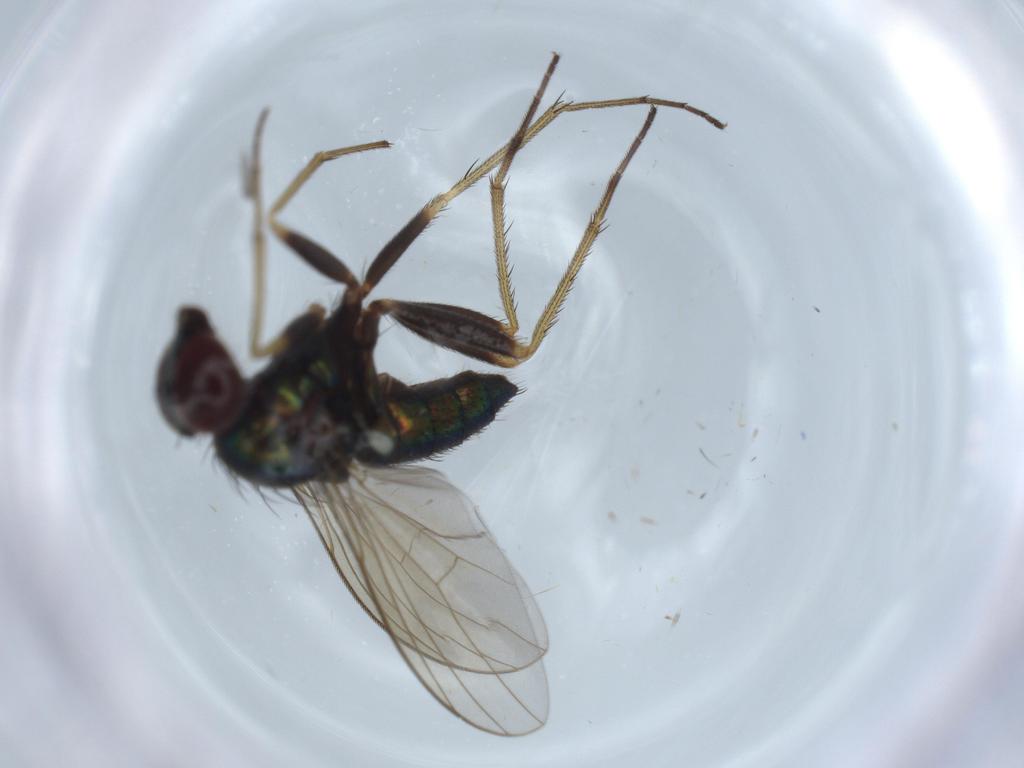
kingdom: Animalia
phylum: Arthropoda
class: Insecta
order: Diptera
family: Dolichopodidae
